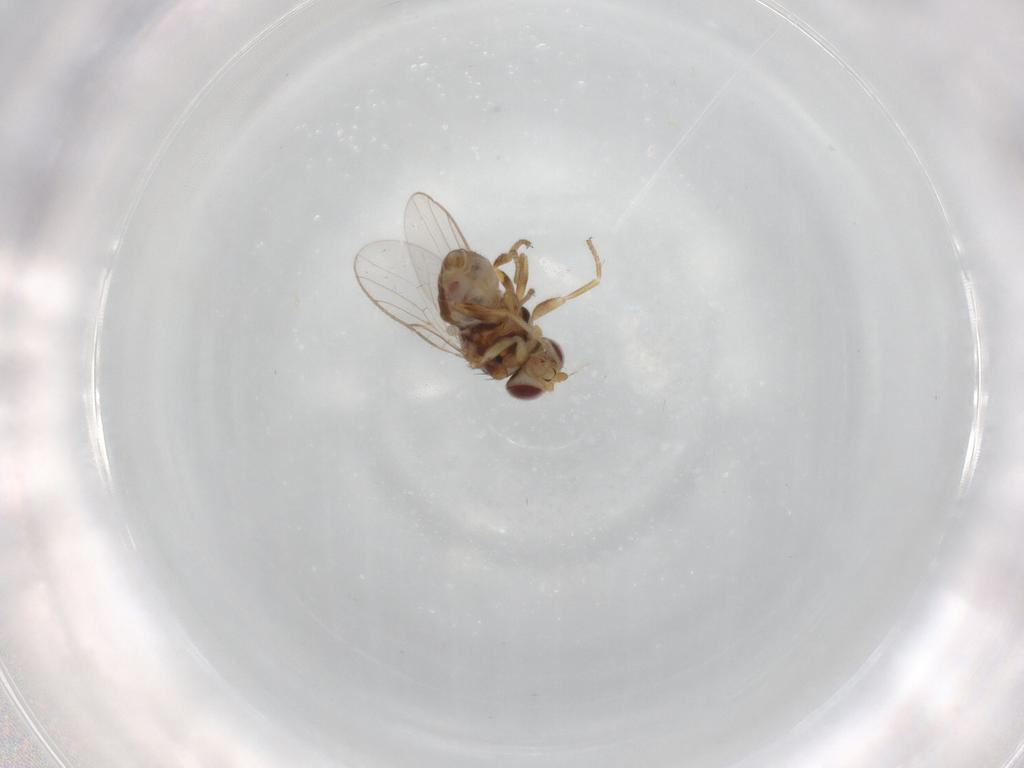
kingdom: Animalia
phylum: Arthropoda
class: Insecta
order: Diptera
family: Chloropidae
